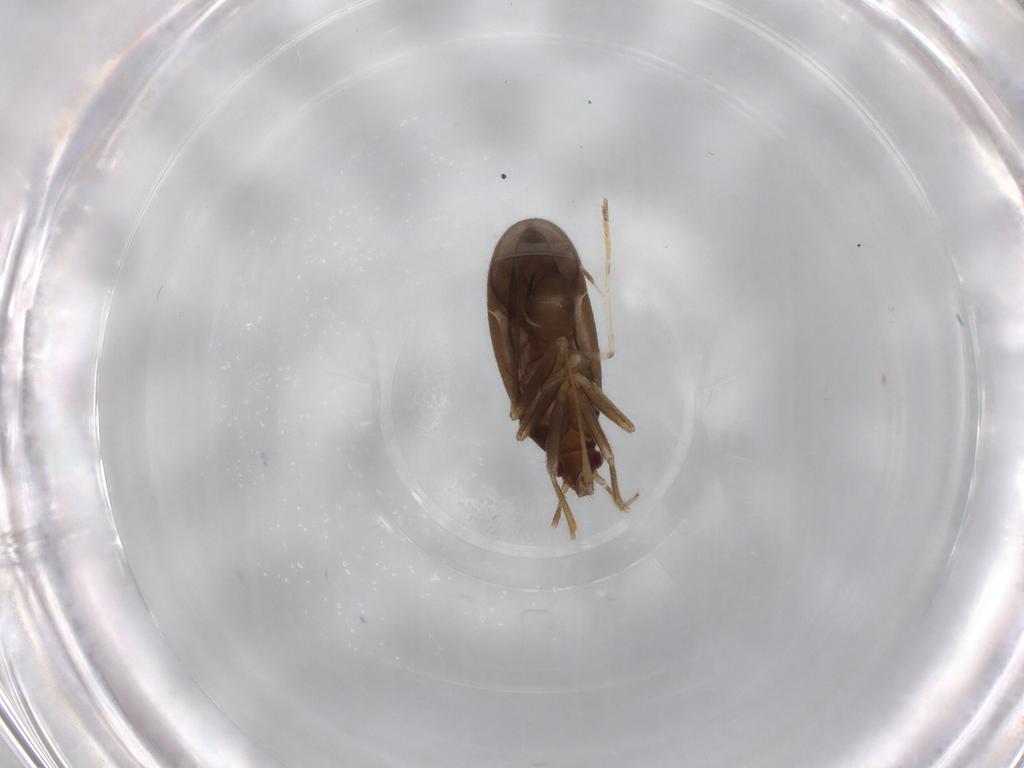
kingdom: Animalia
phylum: Arthropoda
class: Insecta
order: Hemiptera
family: Ceratocombidae
